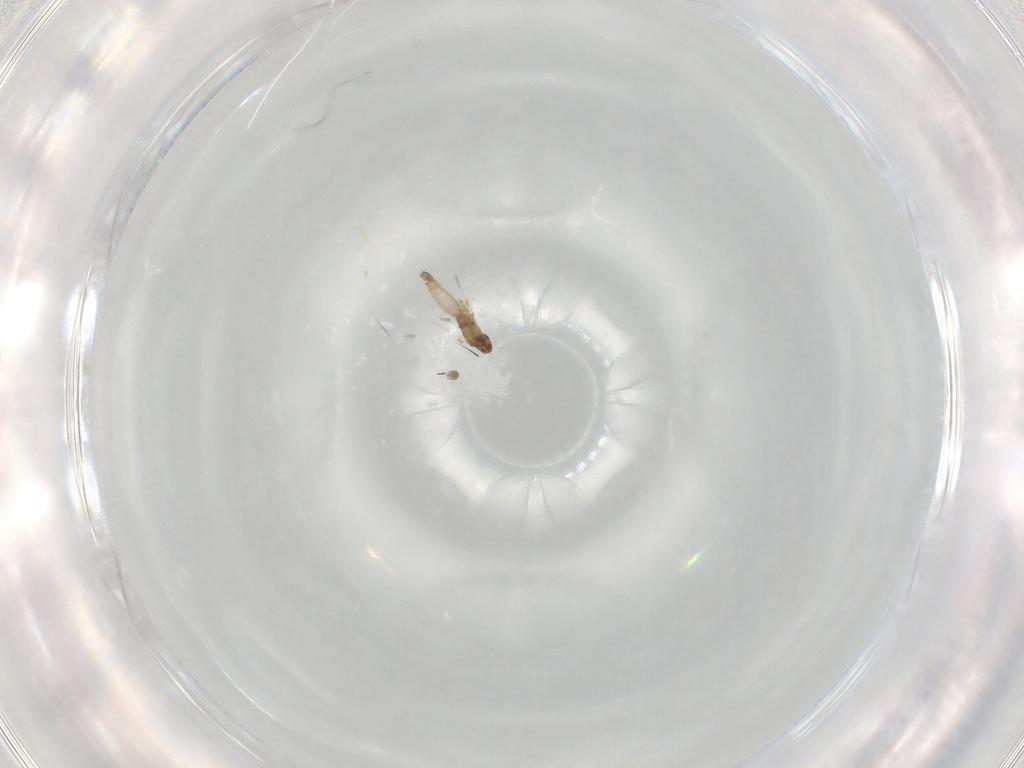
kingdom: Animalia
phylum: Arthropoda
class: Insecta
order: Diptera
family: Cecidomyiidae
